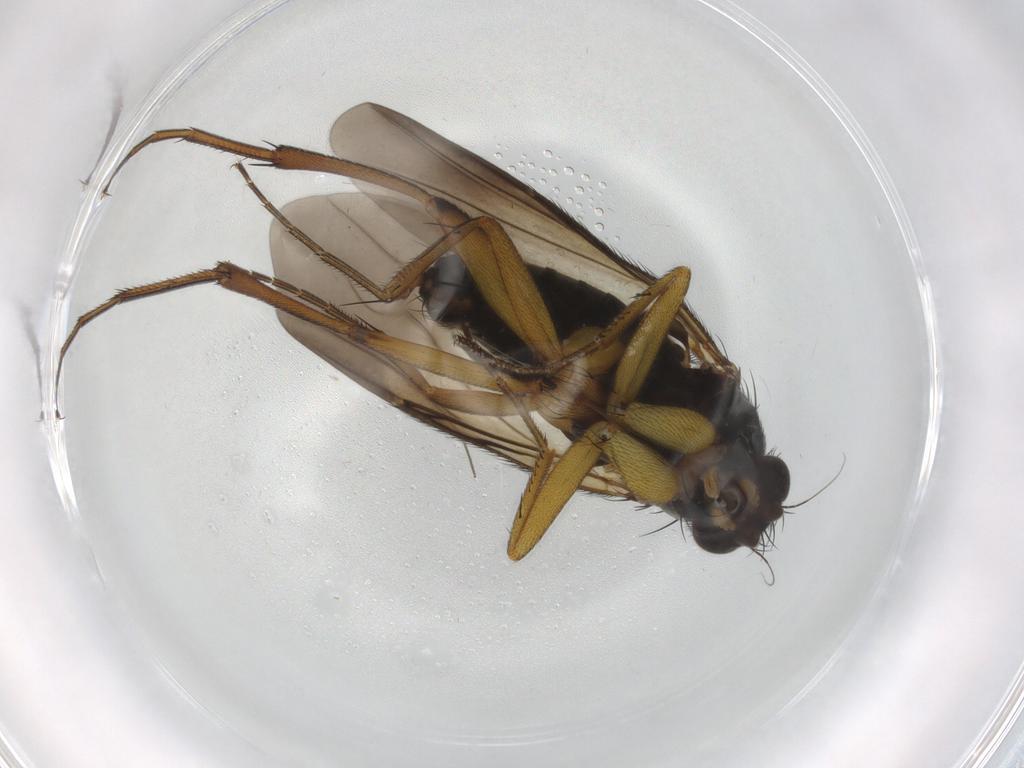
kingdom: Animalia
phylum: Arthropoda
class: Insecta
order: Diptera
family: Phoridae
